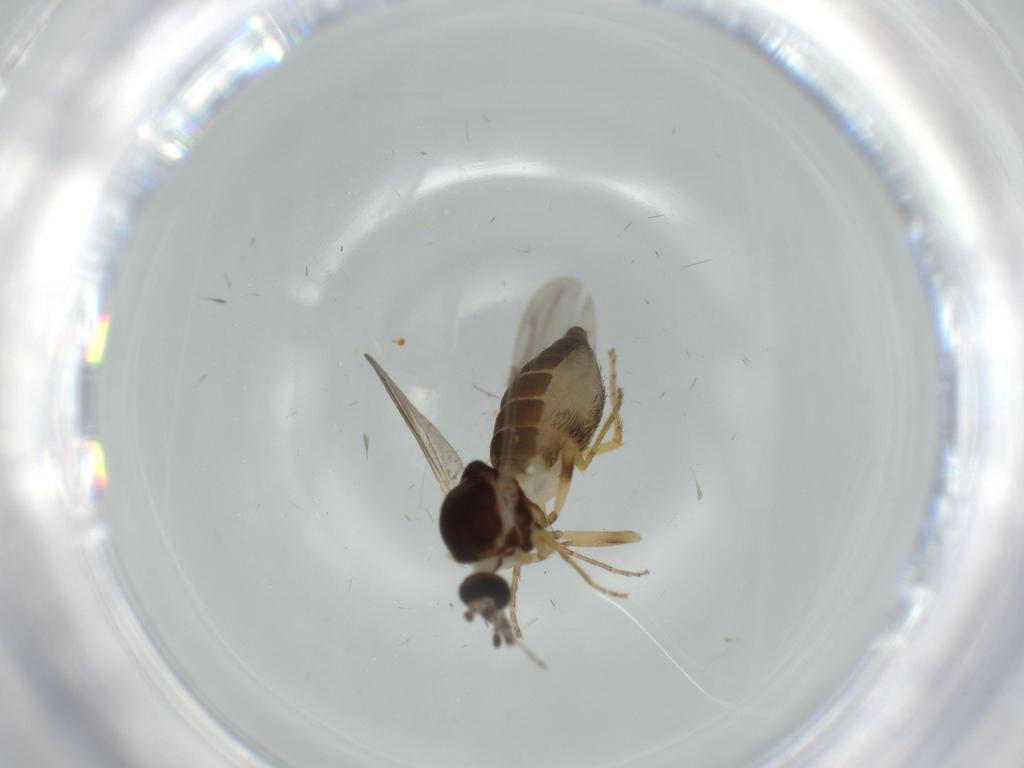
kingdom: Animalia
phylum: Arthropoda
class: Insecta
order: Diptera
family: Ceratopogonidae
